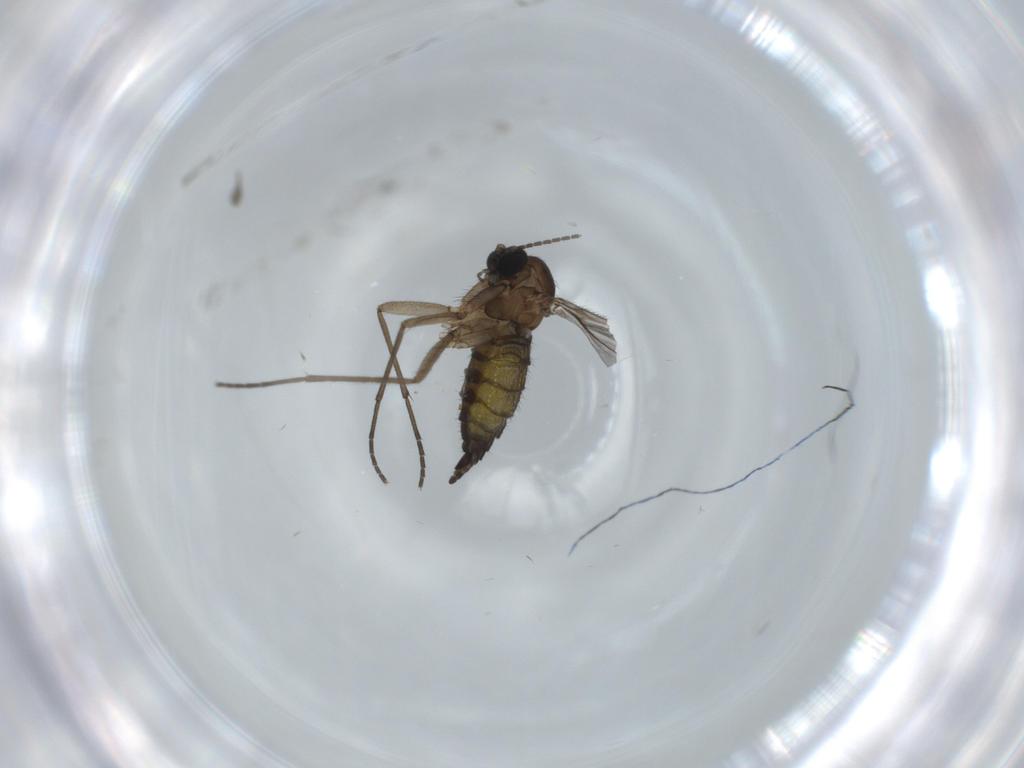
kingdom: Animalia
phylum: Arthropoda
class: Insecta
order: Diptera
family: Sciaridae
